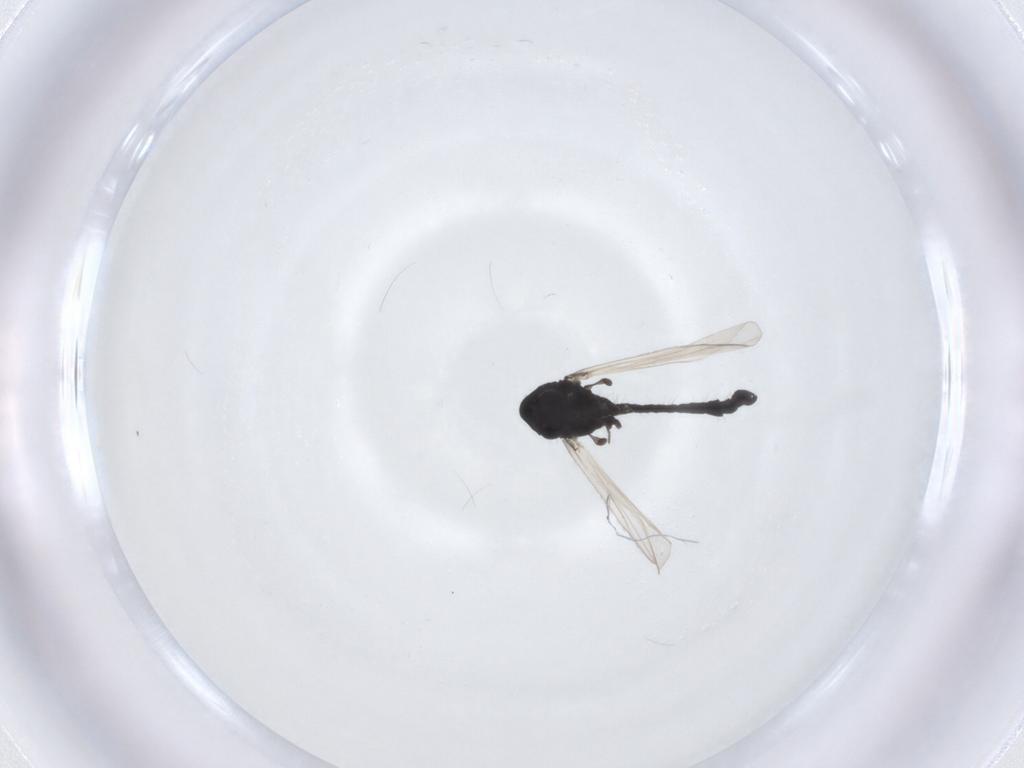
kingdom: Animalia
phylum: Arthropoda
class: Insecta
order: Diptera
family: Chironomidae
